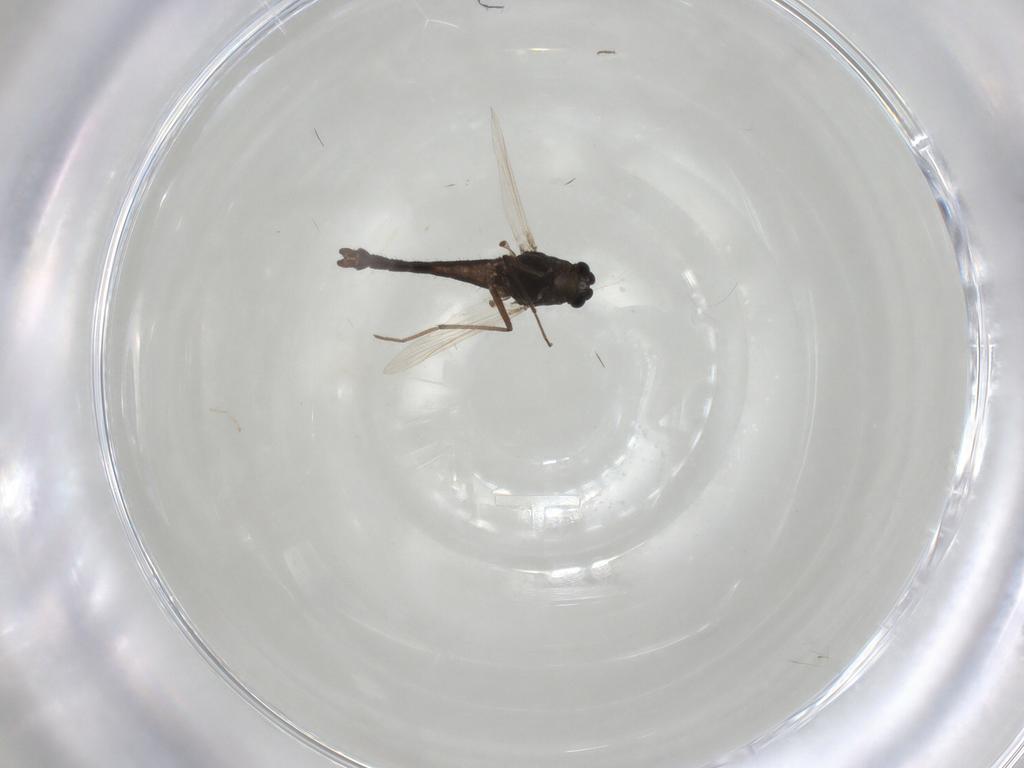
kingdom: Animalia
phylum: Arthropoda
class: Insecta
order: Diptera
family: Chironomidae
